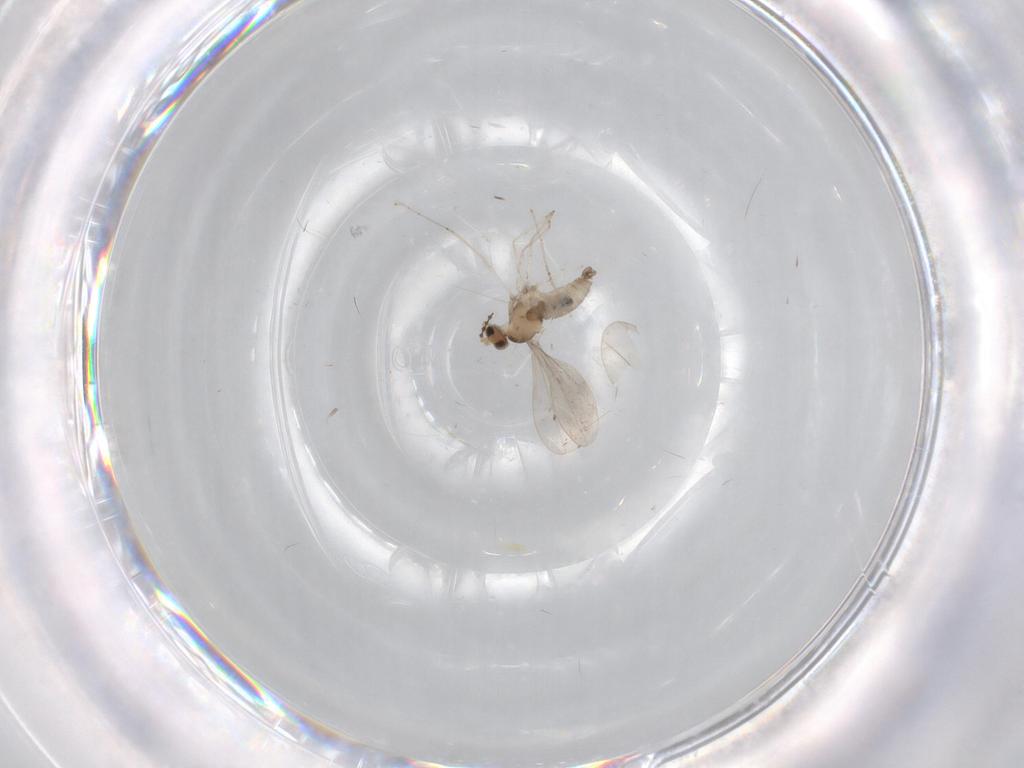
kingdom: Animalia
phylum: Arthropoda
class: Insecta
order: Diptera
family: Cecidomyiidae
